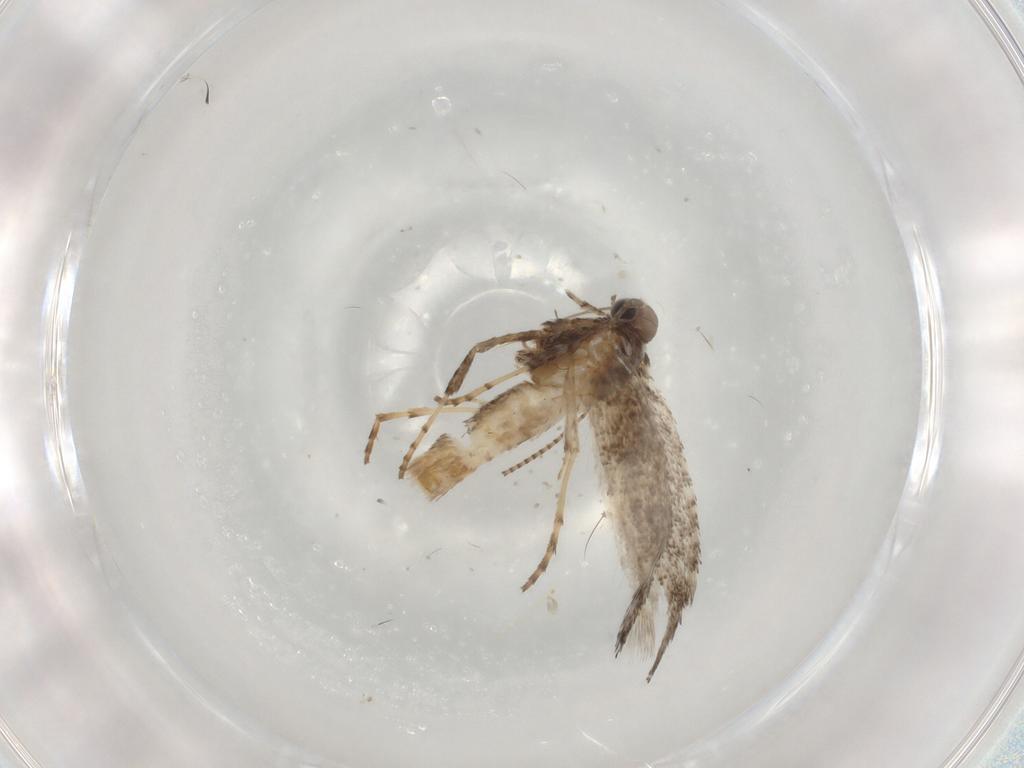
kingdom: Animalia
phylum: Arthropoda
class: Insecta
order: Lepidoptera
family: Gracillariidae
